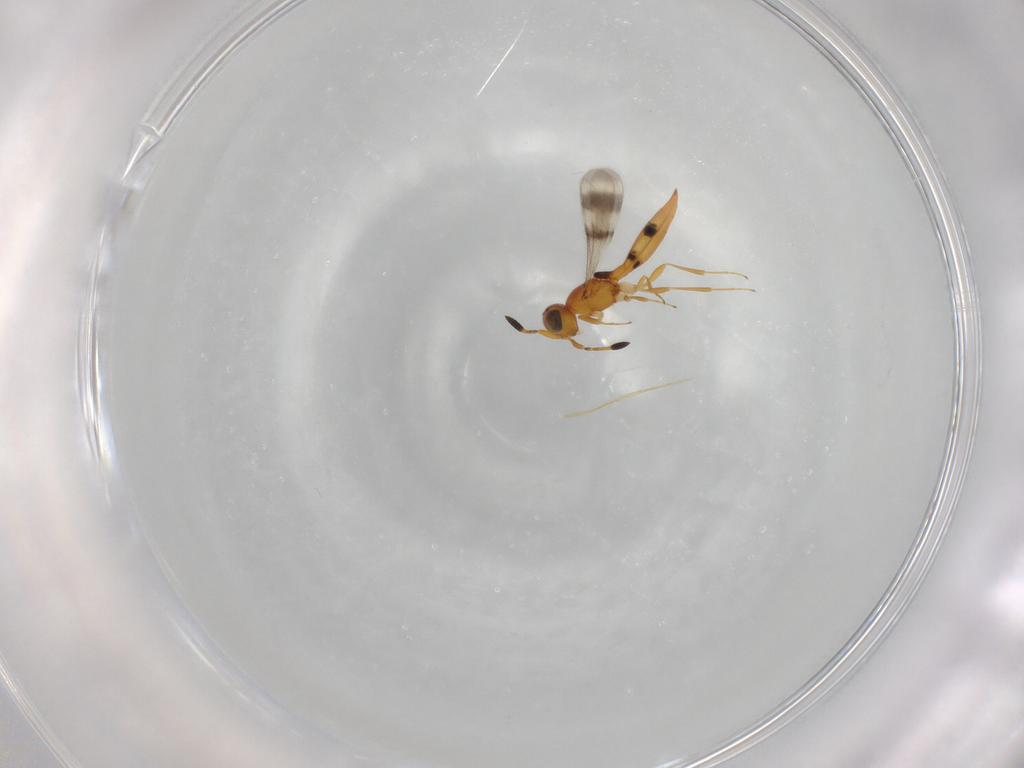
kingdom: Animalia
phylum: Arthropoda
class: Insecta
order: Hymenoptera
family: Scelionidae
